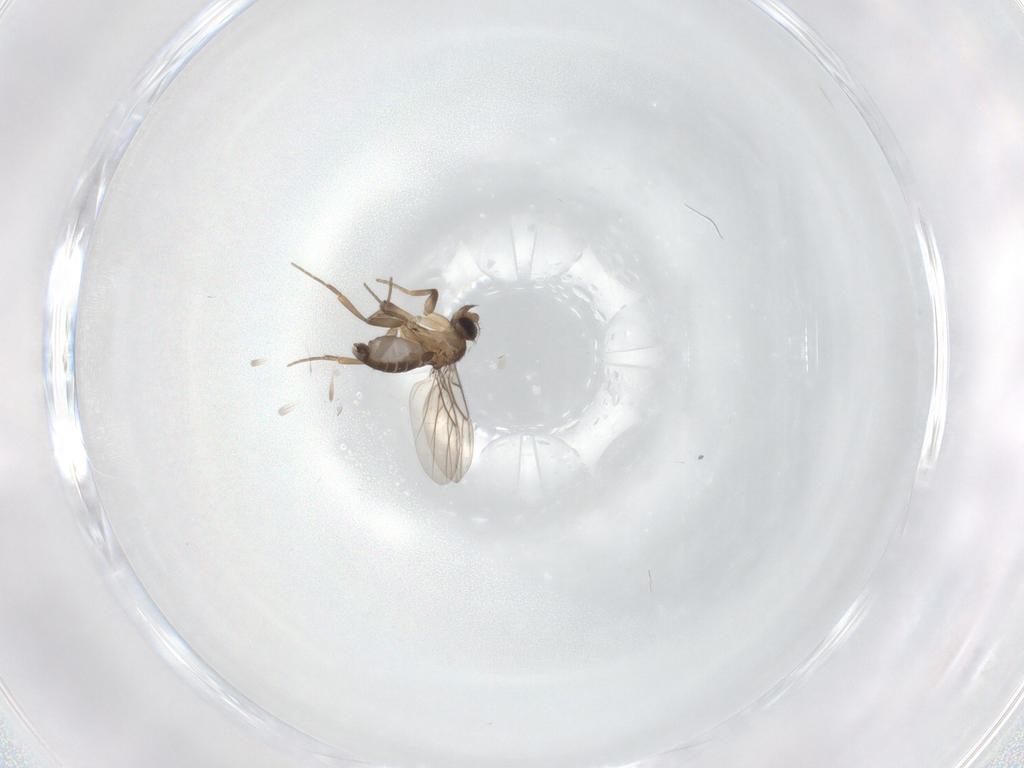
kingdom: Animalia
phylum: Arthropoda
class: Insecta
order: Diptera
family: Phoridae
